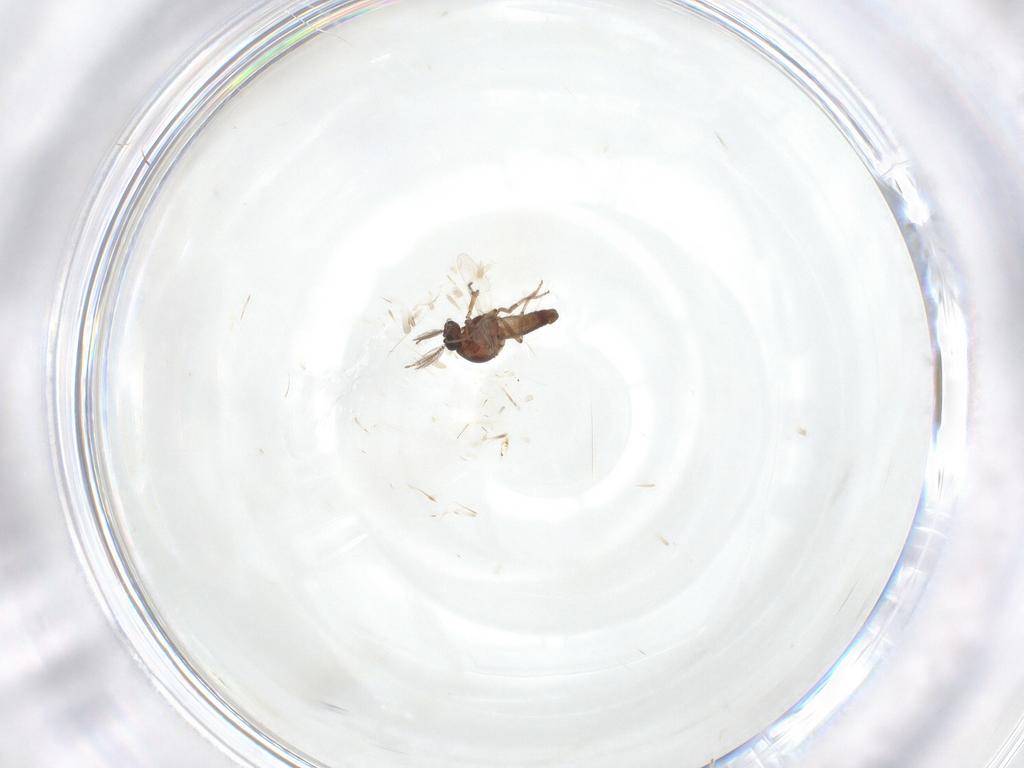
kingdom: Animalia
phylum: Arthropoda
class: Insecta
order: Diptera
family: Ceratopogonidae
